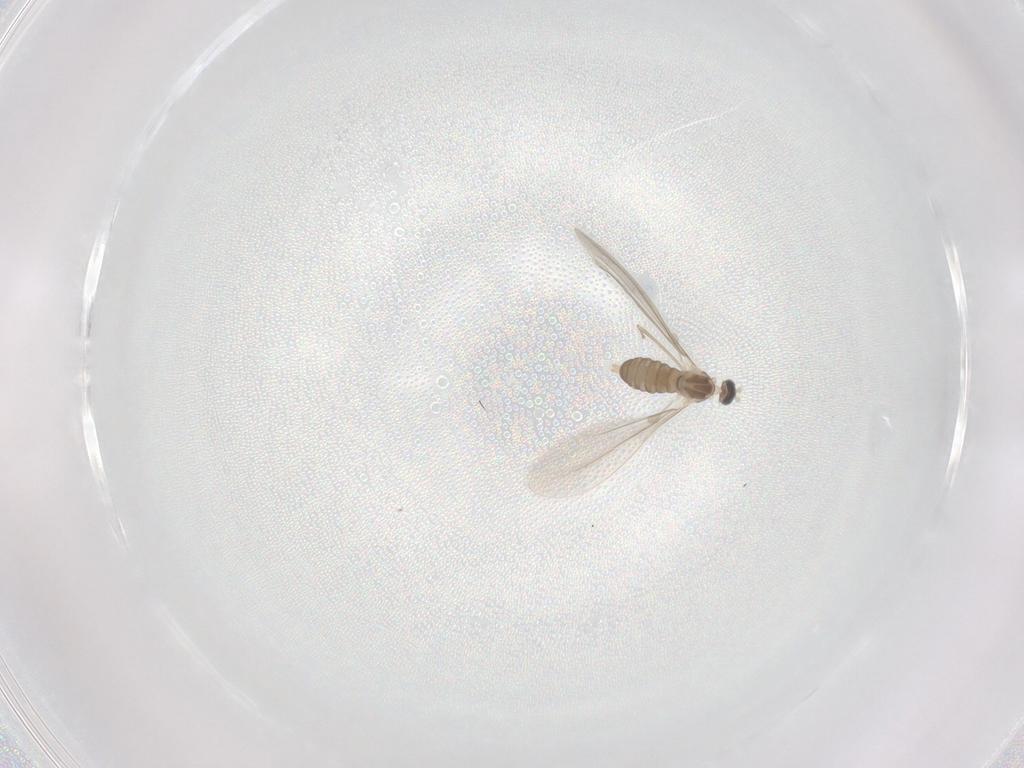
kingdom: Animalia
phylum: Arthropoda
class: Insecta
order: Diptera
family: Cecidomyiidae
